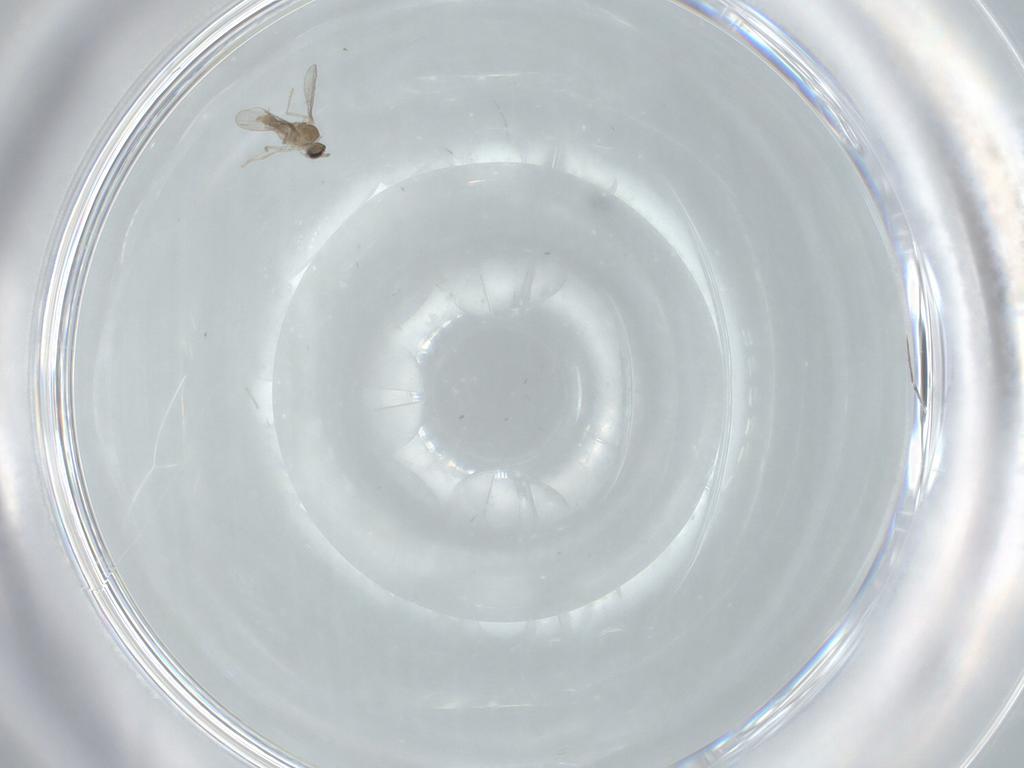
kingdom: Animalia
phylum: Arthropoda
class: Insecta
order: Diptera
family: Cecidomyiidae
